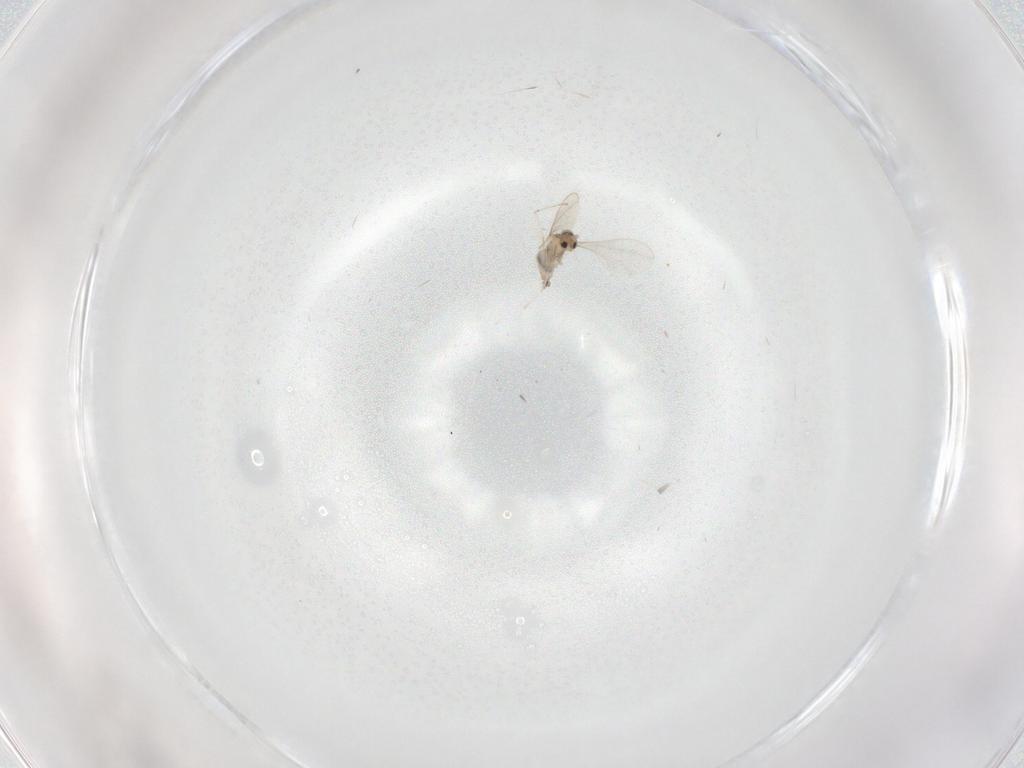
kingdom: Animalia
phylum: Arthropoda
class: Insecta
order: Diptera
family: Cecidomyiidae
